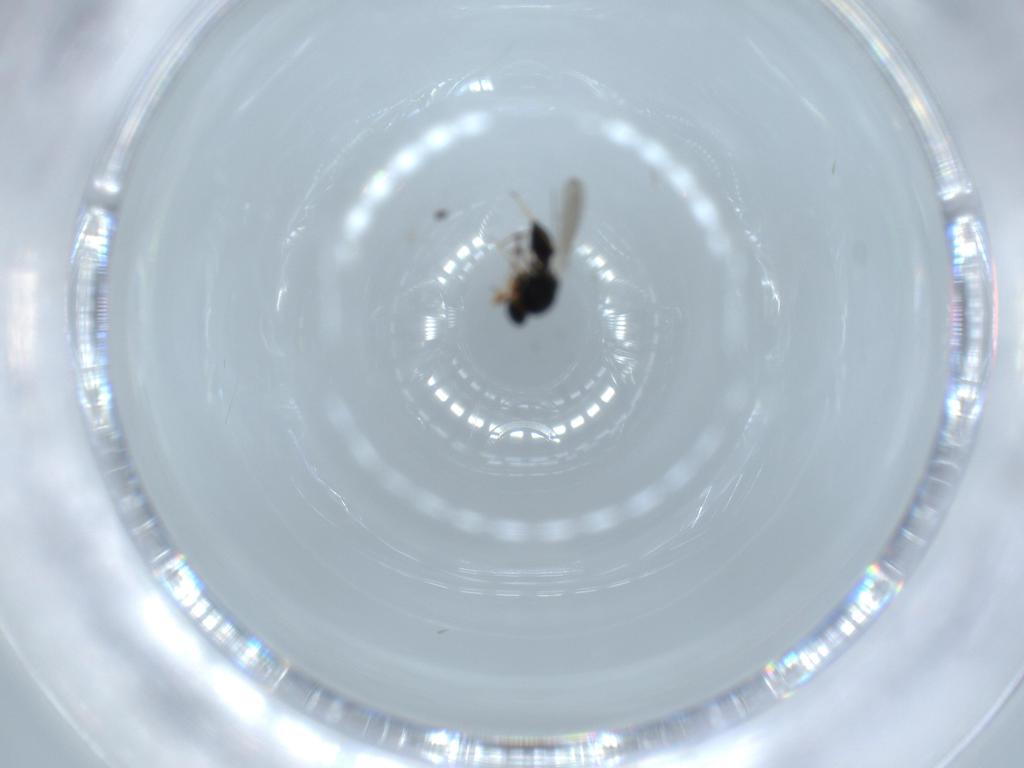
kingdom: Animalia
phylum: Arthropoda
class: Insecta
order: Hymenoptera
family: Platygastridae
